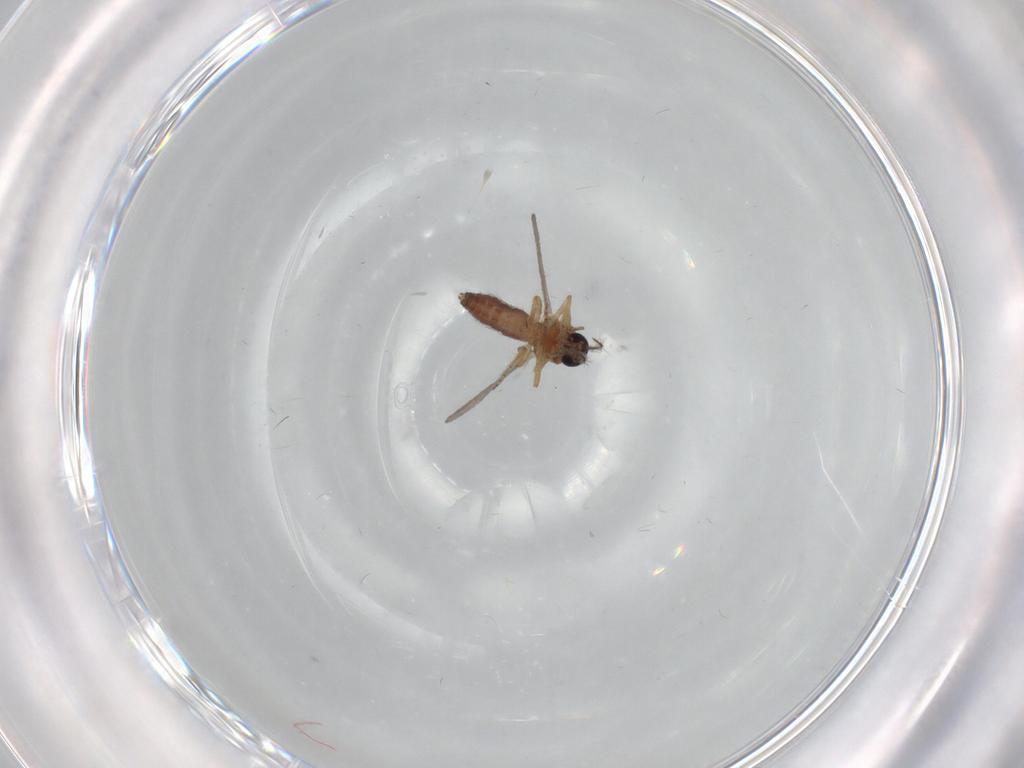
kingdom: Animalia
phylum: Arthropoda
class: Insecta
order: Diptera
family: Ceratopogonidae
